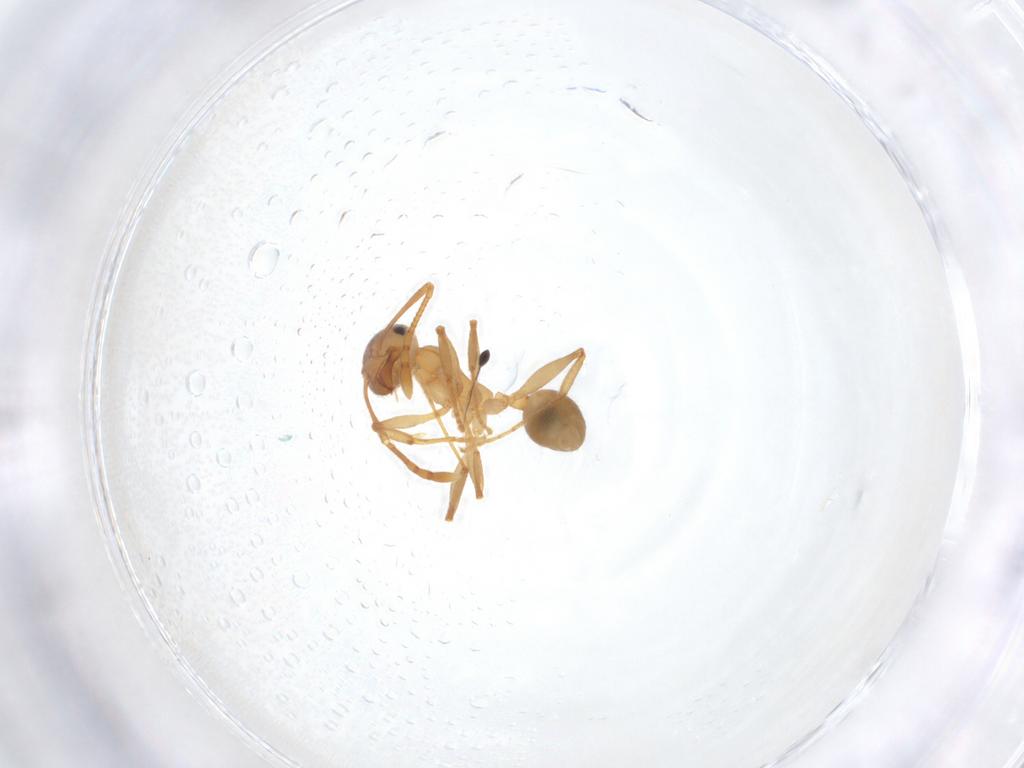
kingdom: Animalia
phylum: Arthropoda
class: Insecta
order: Hymenoptera
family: Formicidae
